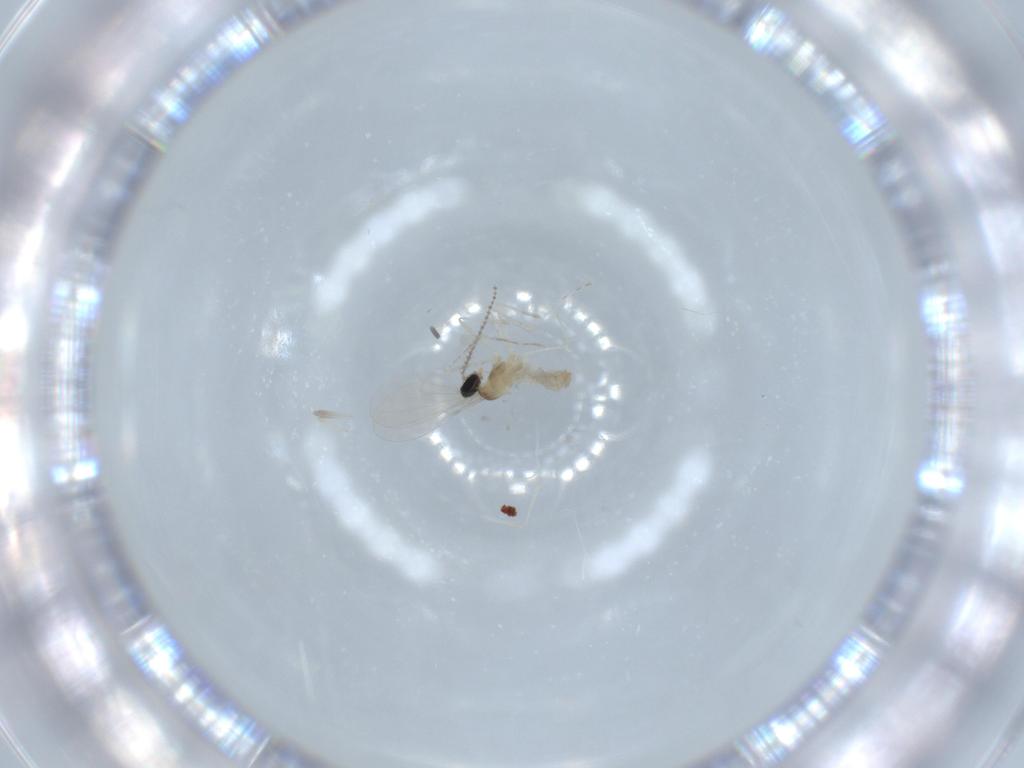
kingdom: Animalia
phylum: Arthropoda
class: Insecta
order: Diptera
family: Cecidomyiidae
